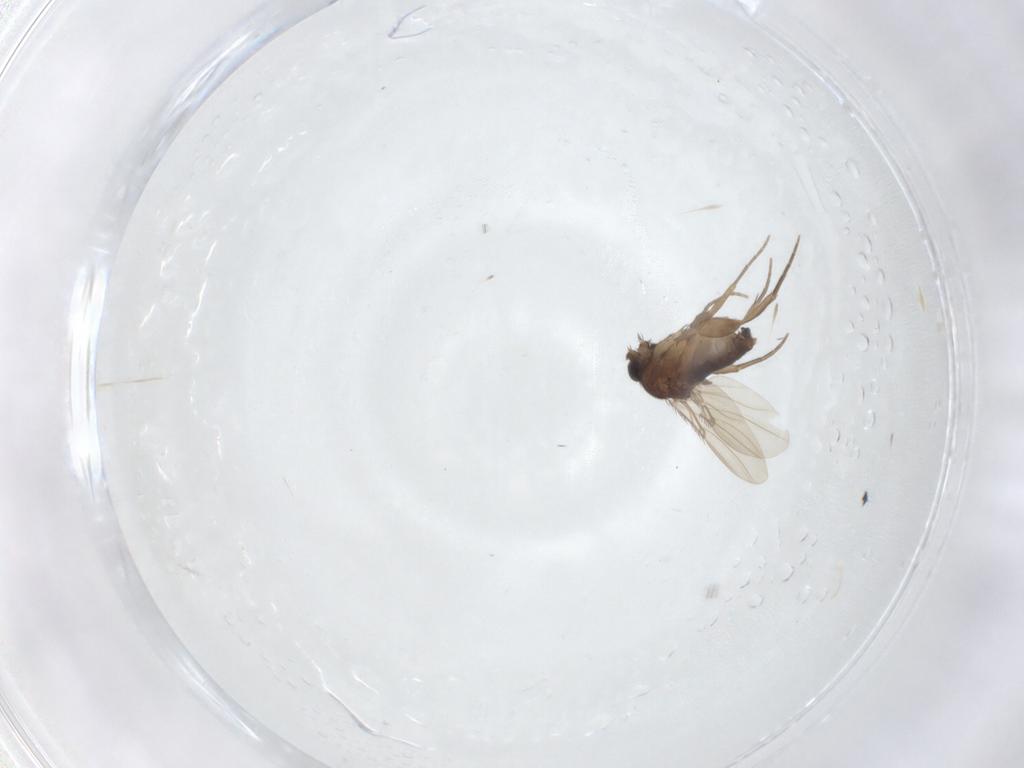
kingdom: Animalia
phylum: Arthropoda
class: Insecta
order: Diptera
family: Phoridae
